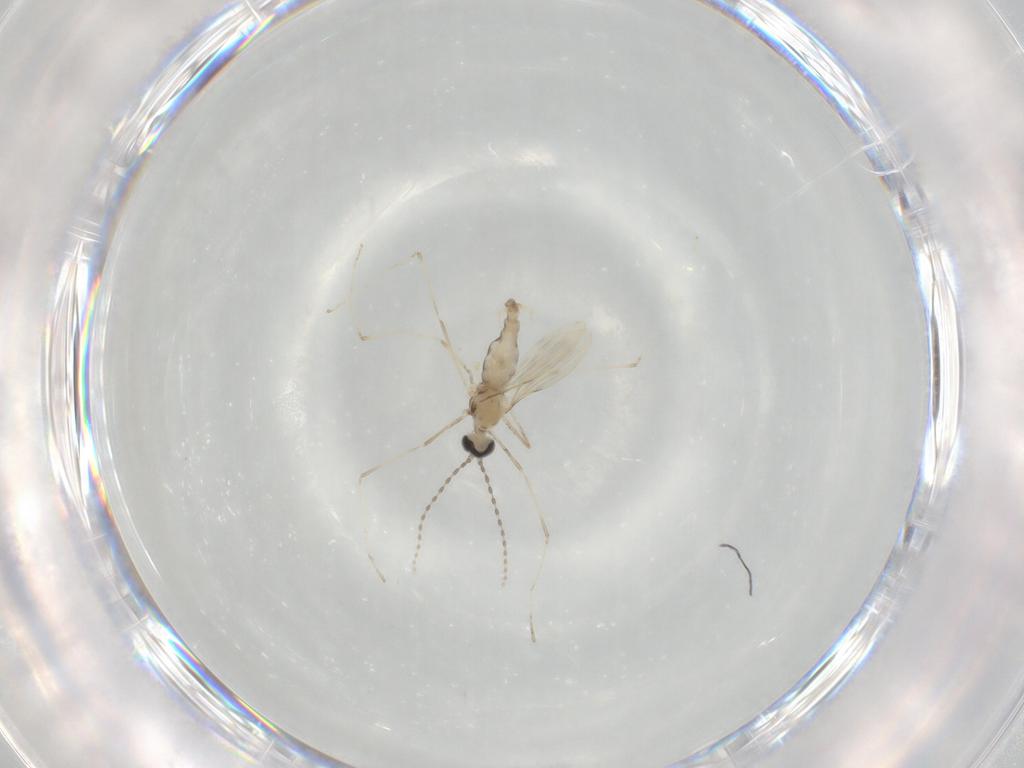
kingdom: Animalia
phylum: Arthropoda
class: Insecta
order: Diptera
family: Cecidomyiidae
